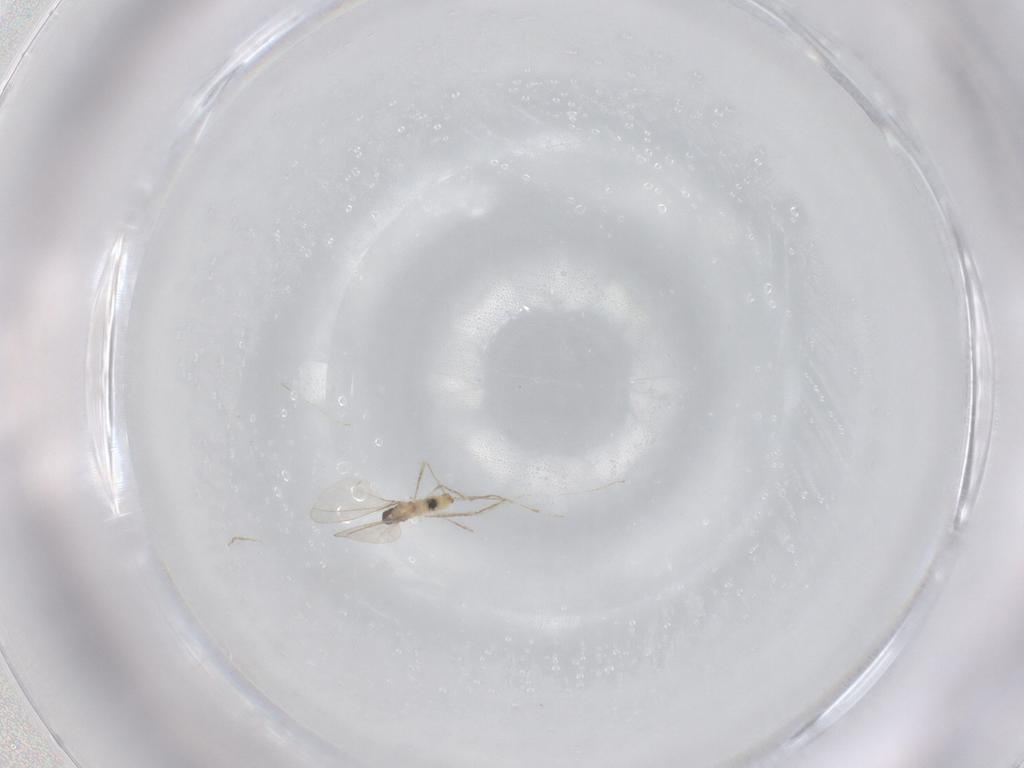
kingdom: Animalia
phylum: Arthropoda
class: Insecta
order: Diptera
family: Cecidomyiidae
